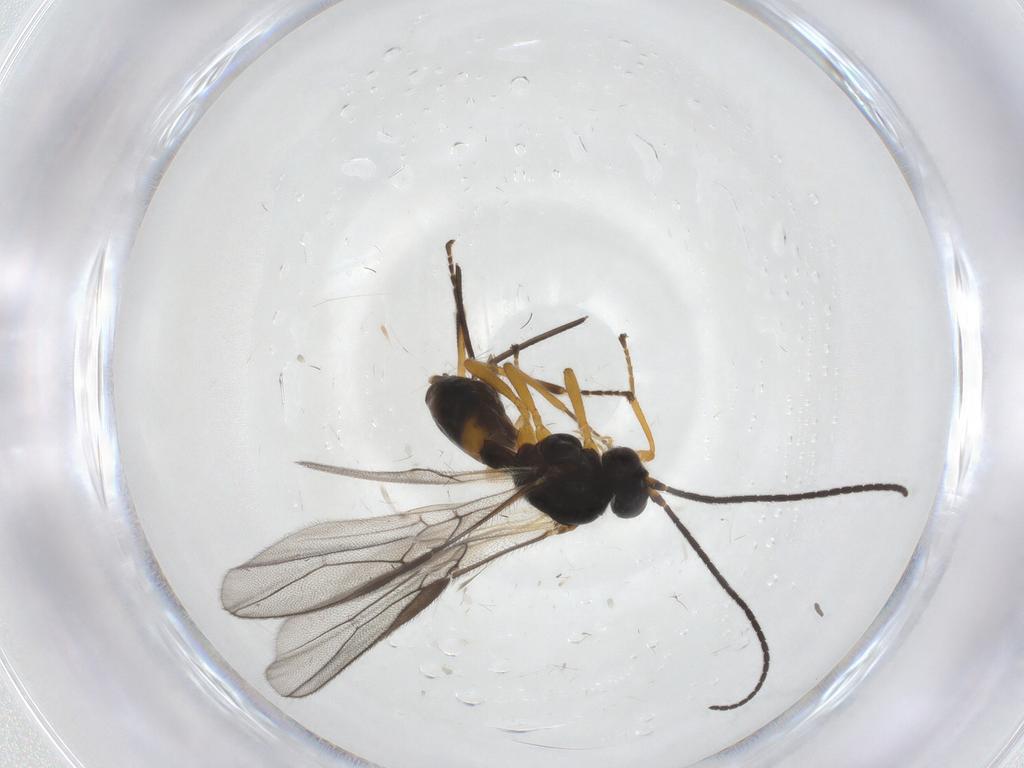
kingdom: Animalia
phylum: Arthropoda
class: Insecta
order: Hymenoptera
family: Braconidae
